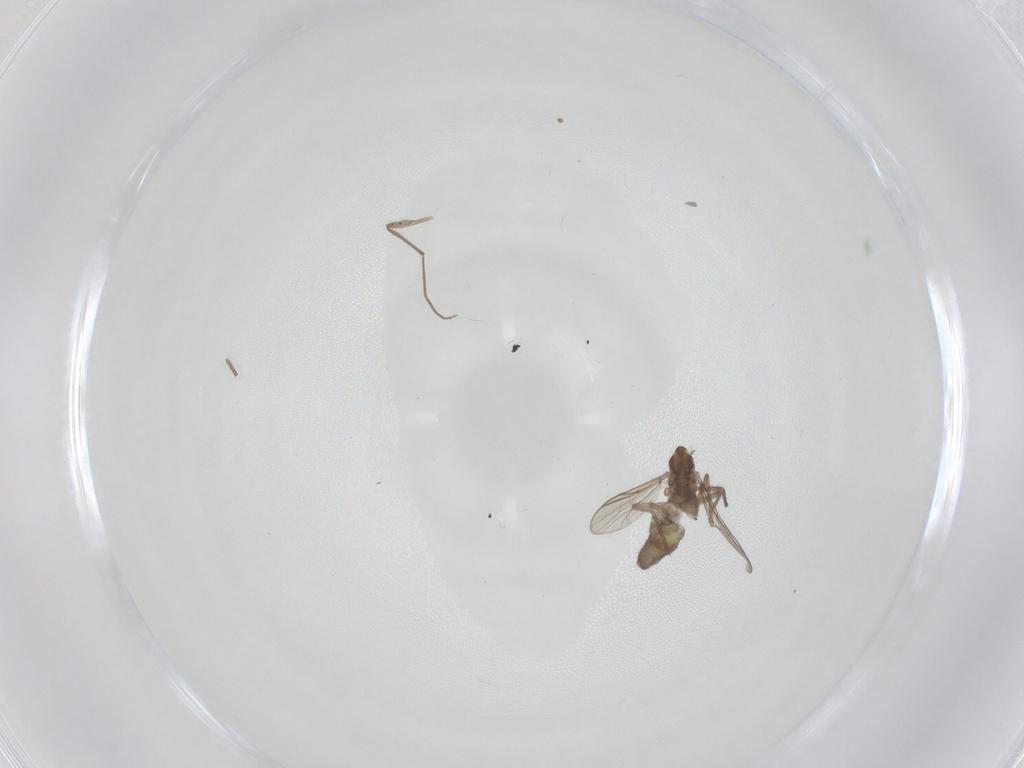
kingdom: Animalia
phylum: Arthropoda
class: Insecta
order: Diptera
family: Chironomidae
